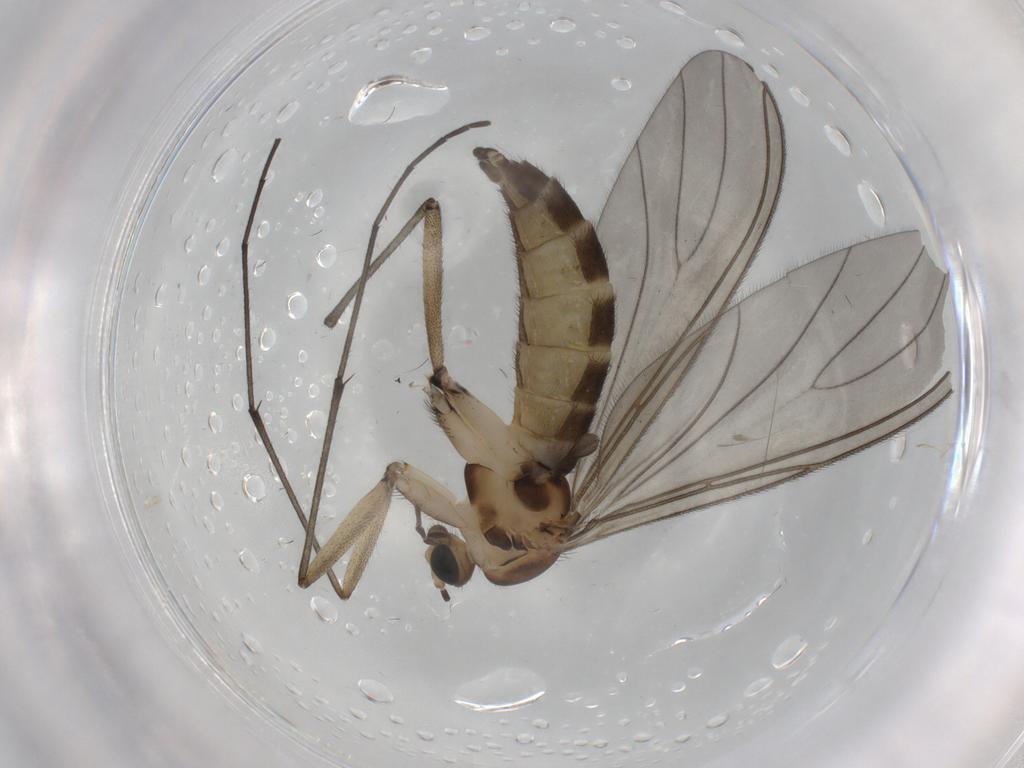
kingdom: Animalia
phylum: Arthropoda
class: Insecta
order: Diptera
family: Sciaridae
